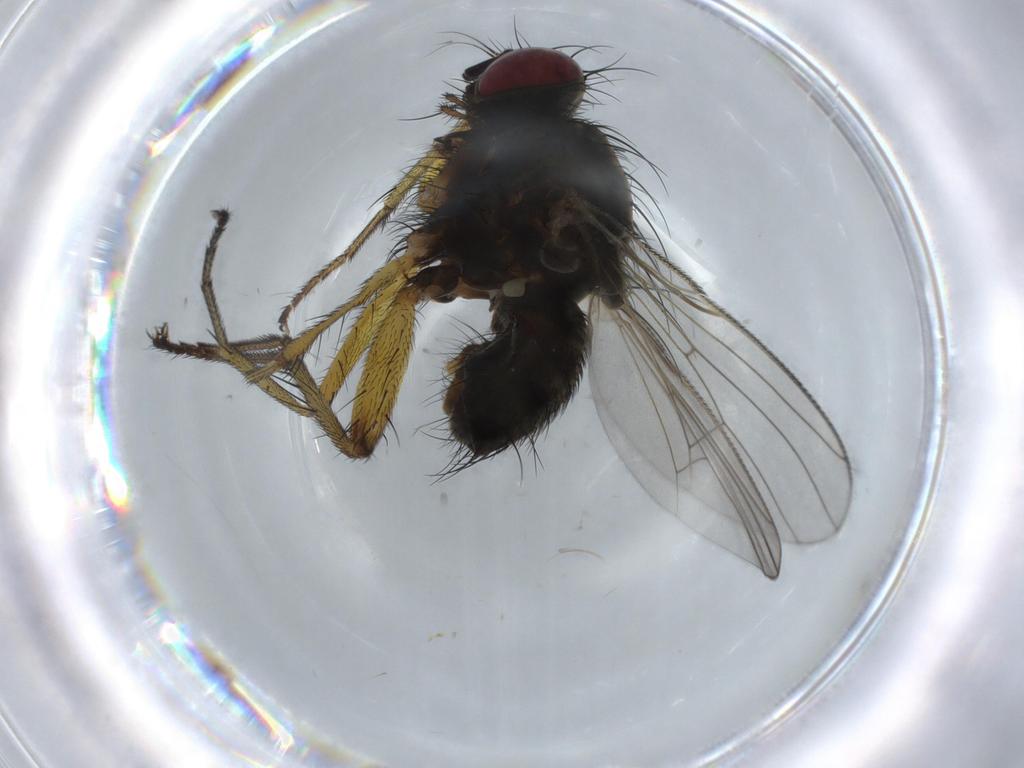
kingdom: Animalia
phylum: Arthropoda
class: Insecta
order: Diptera
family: Muscidae
